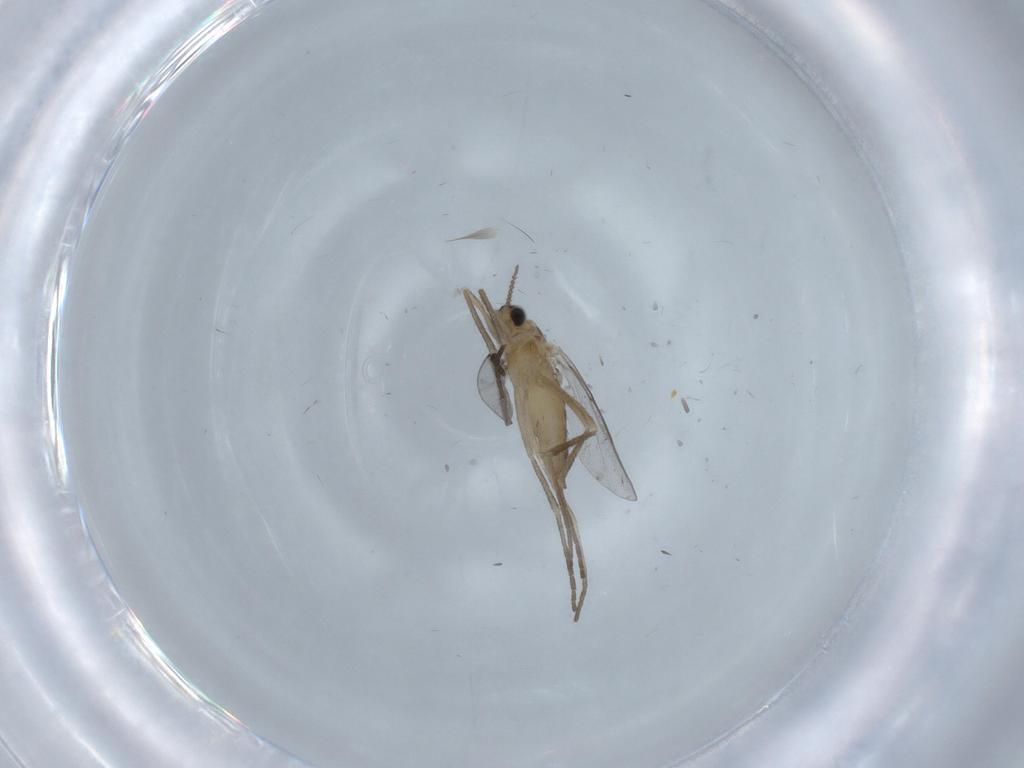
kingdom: Animalia
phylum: Arthropoda
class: Insecta
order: Diptera
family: Cecidomyiidae
